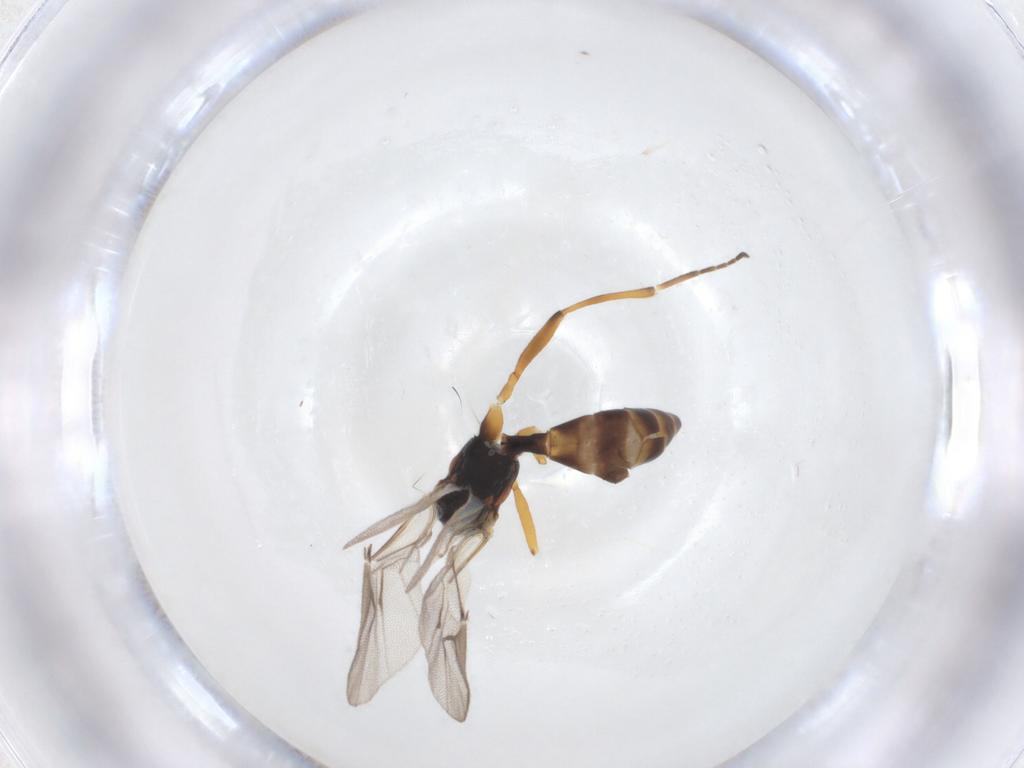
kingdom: Animalia
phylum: Arthropoda
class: Insecta
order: Hymenoptera
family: Braconidae
